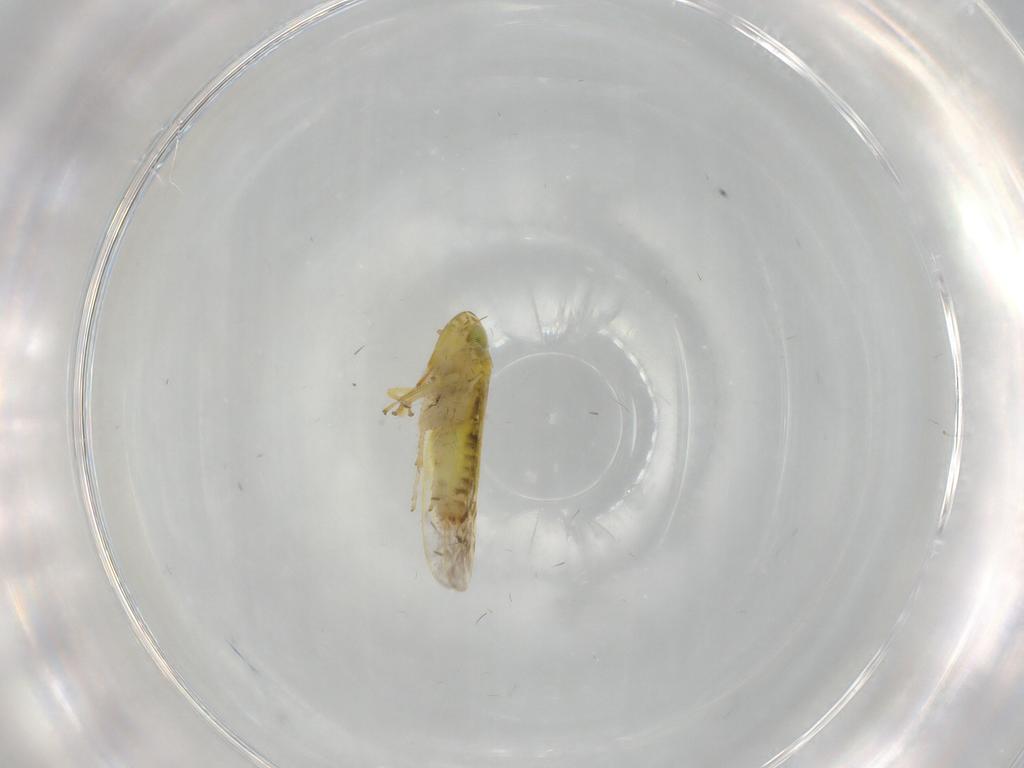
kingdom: Animalia
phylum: Arthropoda
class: Insecta
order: Hemiptera
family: Cicadellidae
